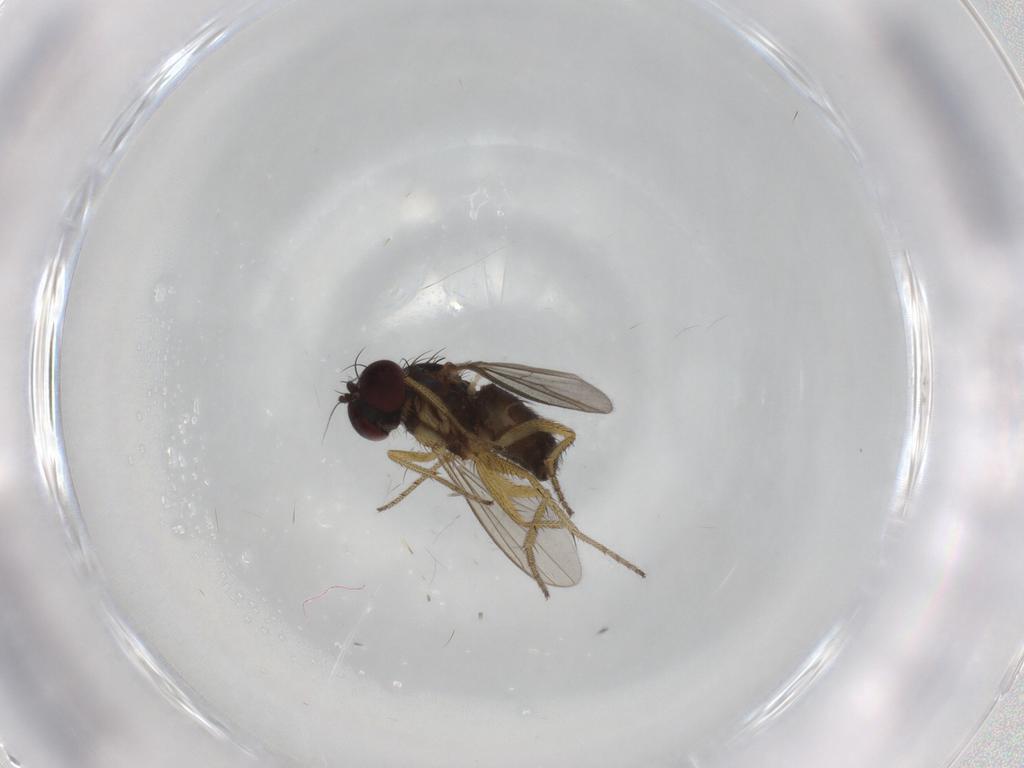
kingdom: Animalia
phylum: Arthropoda
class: Insecta
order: Diptera
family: Dolichopodidae
